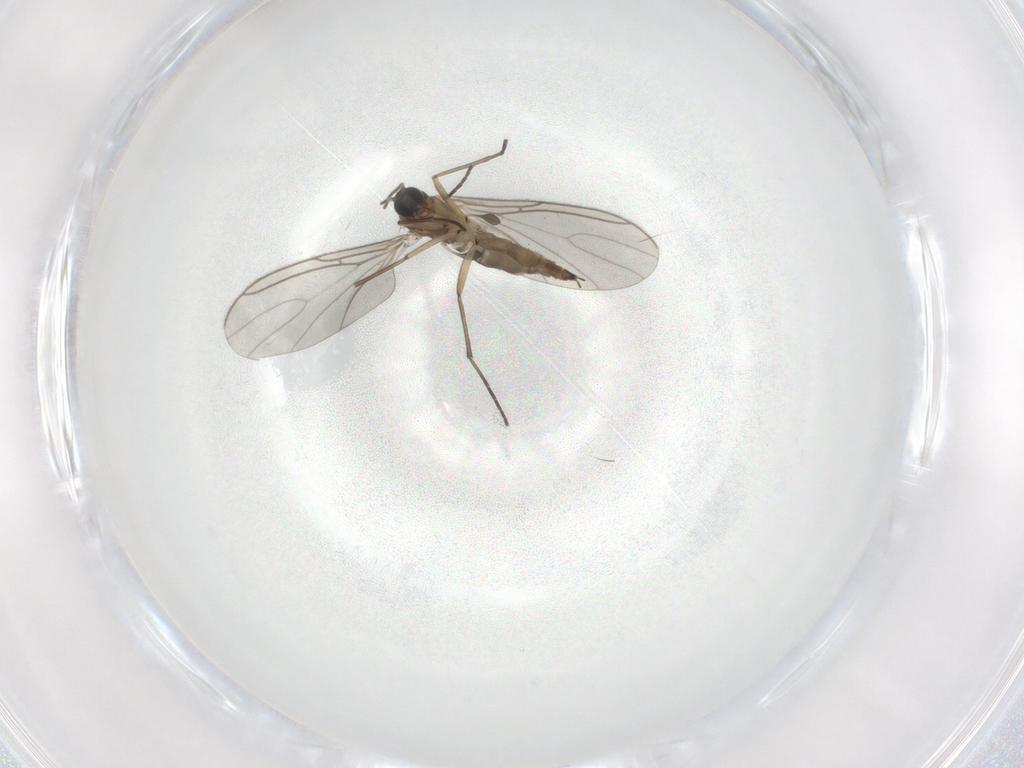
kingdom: Animalia
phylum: Arthropoda
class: Insecta
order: Diptera
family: Sciaridae
